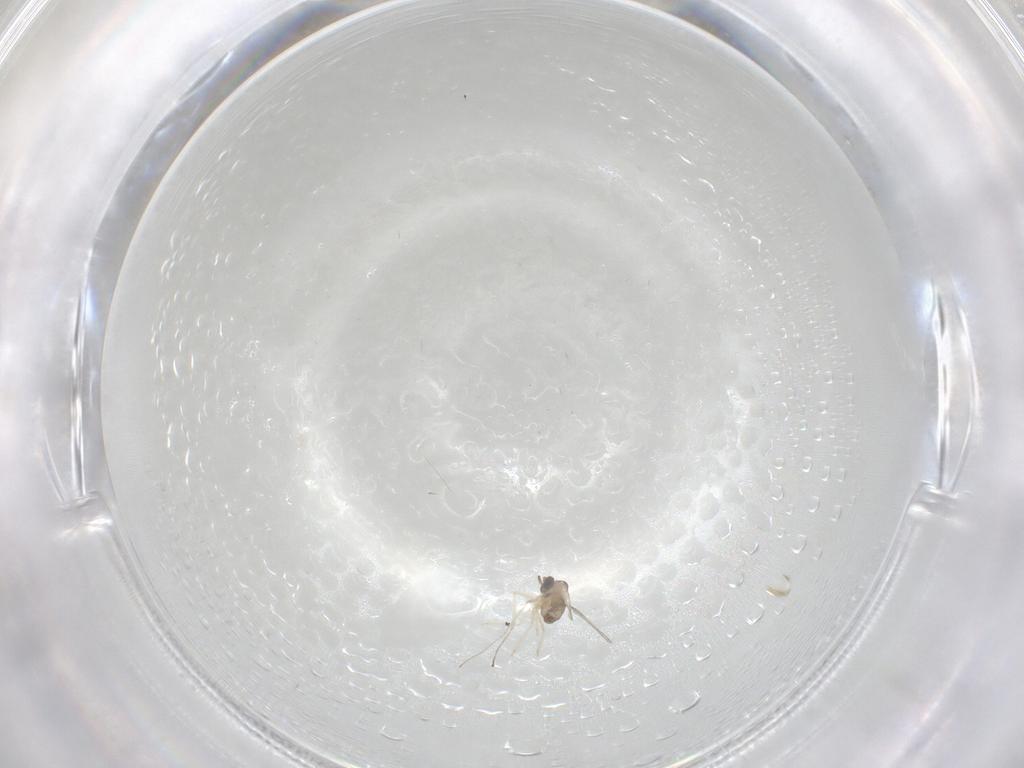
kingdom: Animalia
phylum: Arthropoda
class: Insecta
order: Diptera
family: Cecidomyiidae
